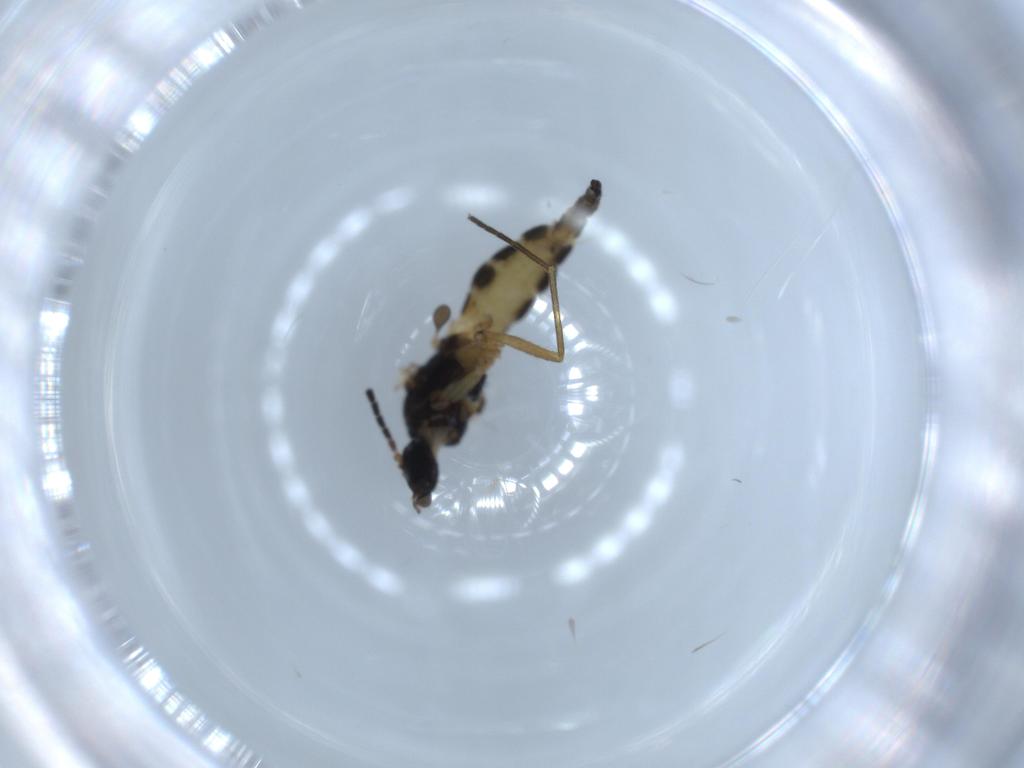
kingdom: Animalia
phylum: Arthropoda
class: Insecta
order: Diptera
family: Sciaridae
